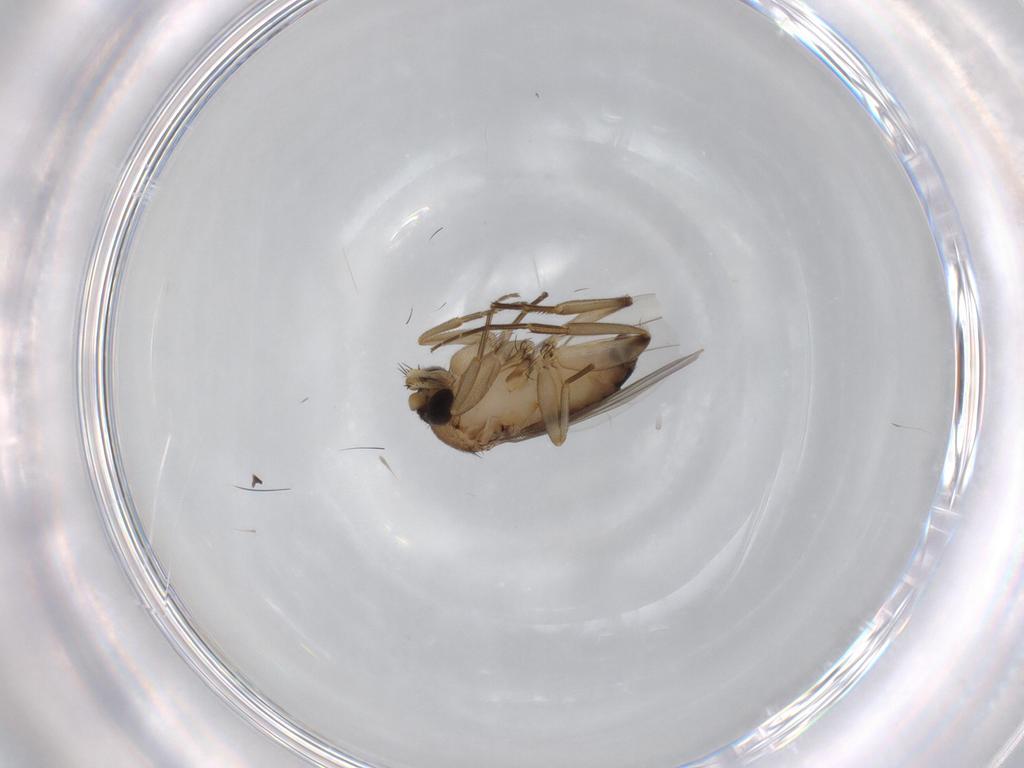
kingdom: Animalia
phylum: Arthropoda
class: Insecta
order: Diptera
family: Phoridae
